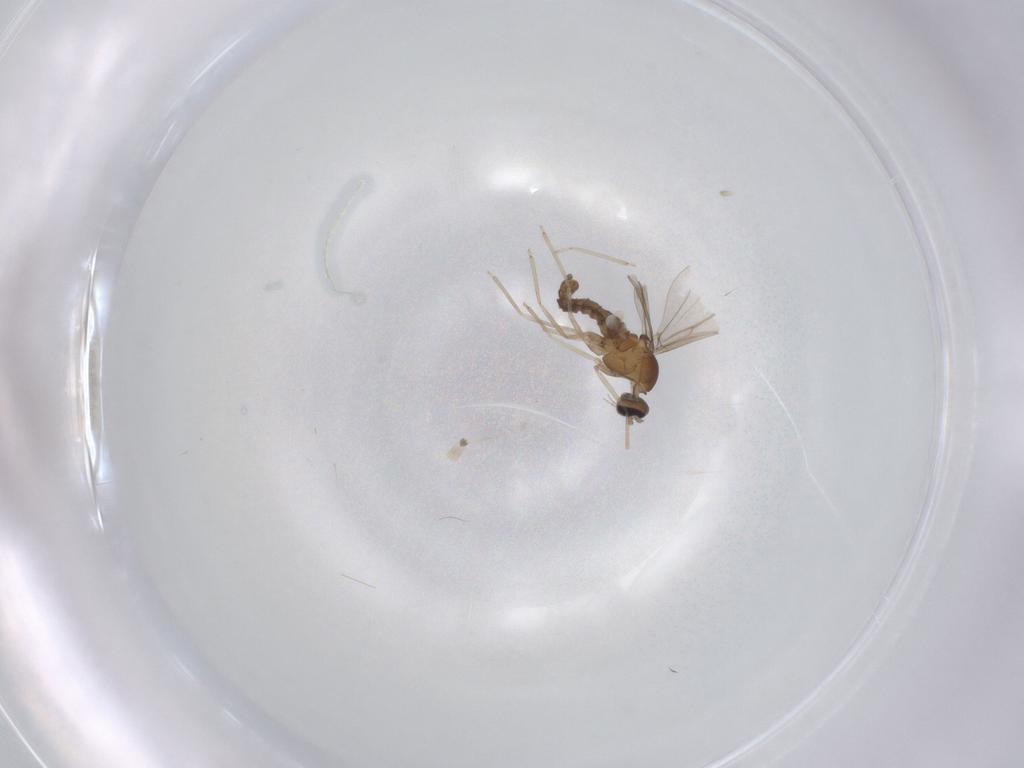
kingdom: Animalia
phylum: Arthropoda
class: Insecta
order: Diptera
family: Cecidomyiidae
